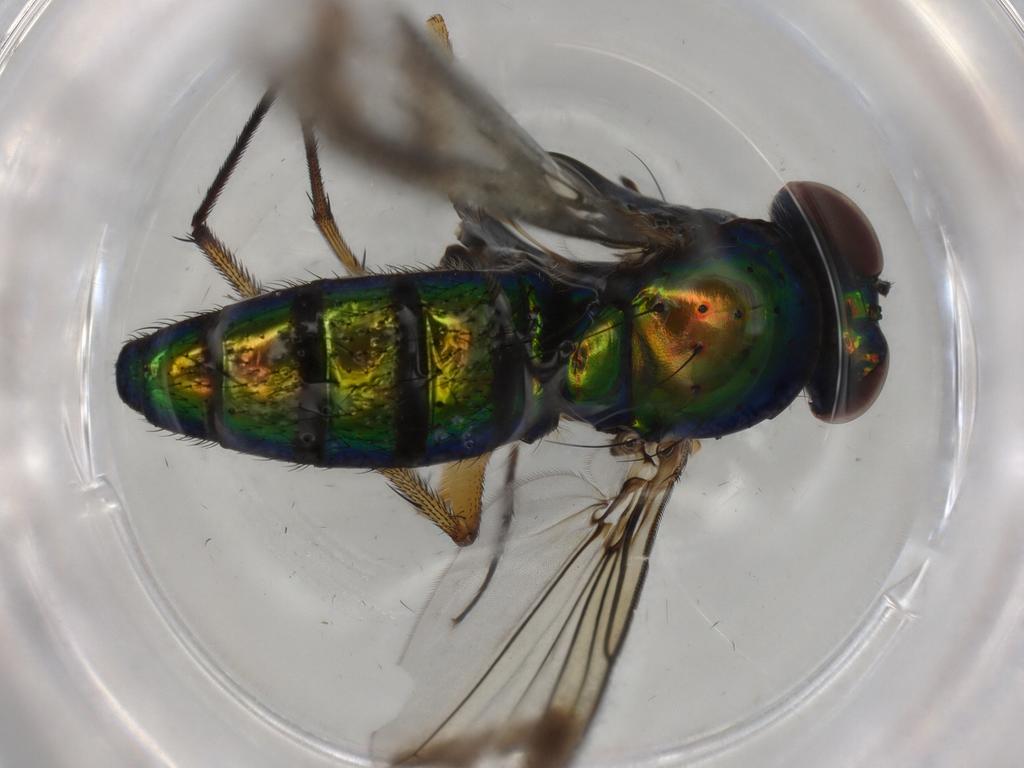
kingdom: Animalia
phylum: Arthropoda
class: Insecta
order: Diptera
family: Dolichopodidae
